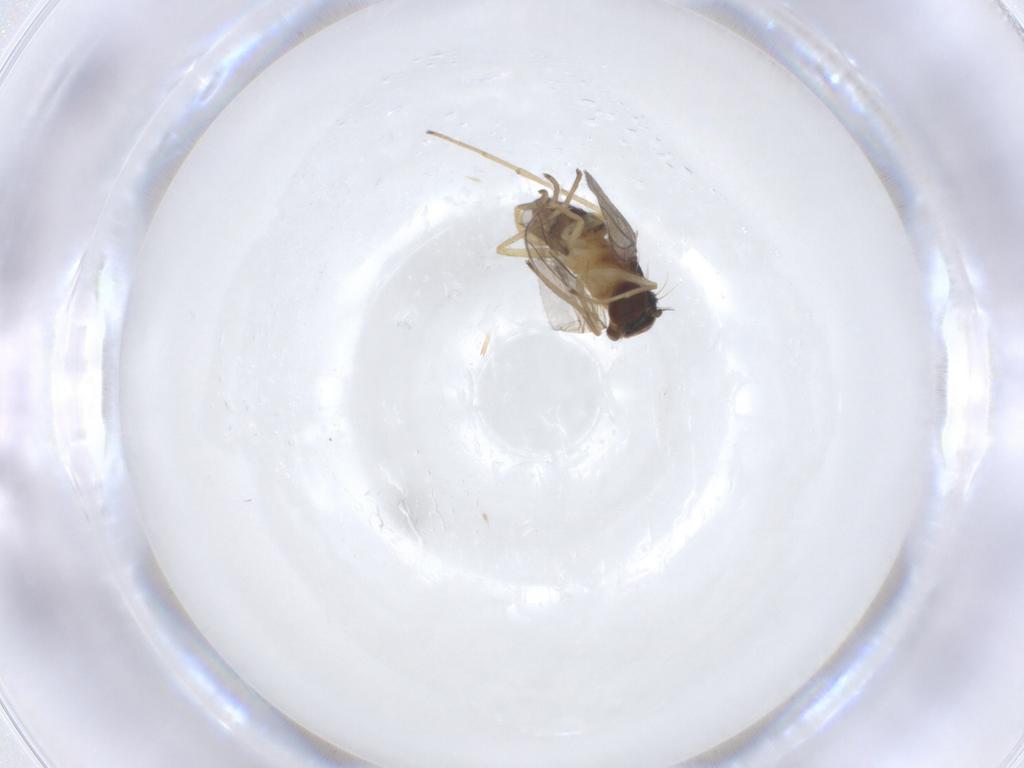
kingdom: Animalia
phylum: Arthropoda
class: Insecta
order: Diptera
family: Dolichopodidae
